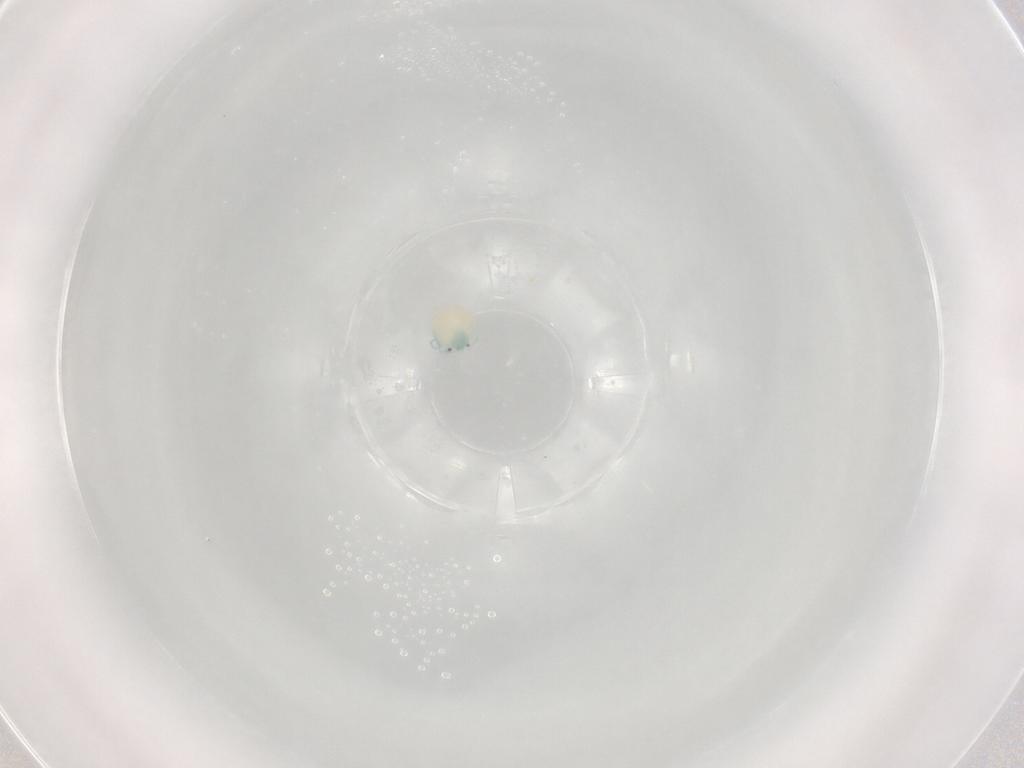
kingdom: Animalia
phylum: Arthropoda
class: Arachnida
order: Trombidiformes
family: Arrenuridae
